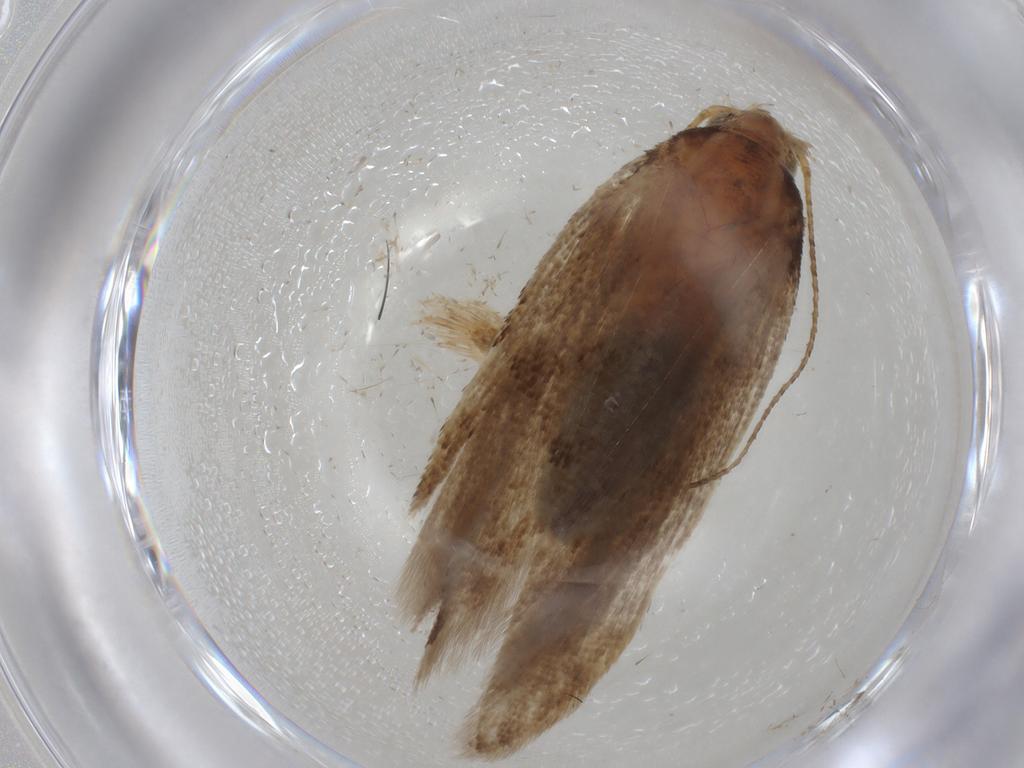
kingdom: Animalia
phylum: Arthropoda
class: Insecta
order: Lepidoptera
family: Gelechiidae
